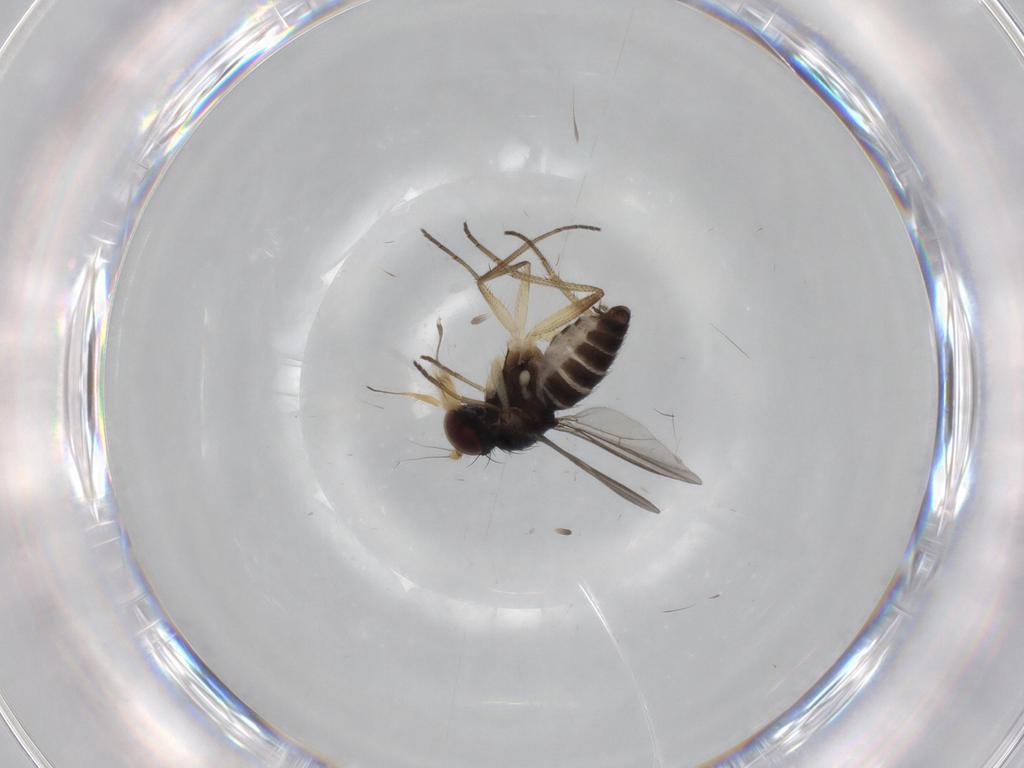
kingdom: Animalia
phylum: Arthropoda
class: Insecta
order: Diptera
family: Dolichopodidae
